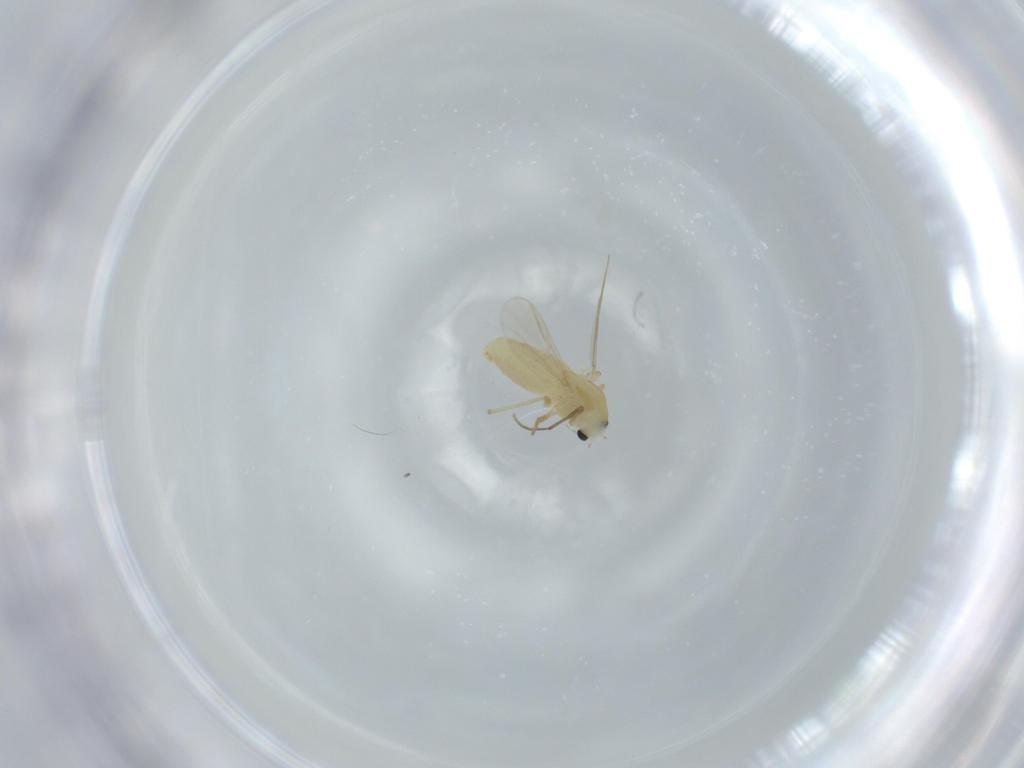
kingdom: Animalia
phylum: Arthropoda
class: Insecta
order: Diptera
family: Chironomidae
